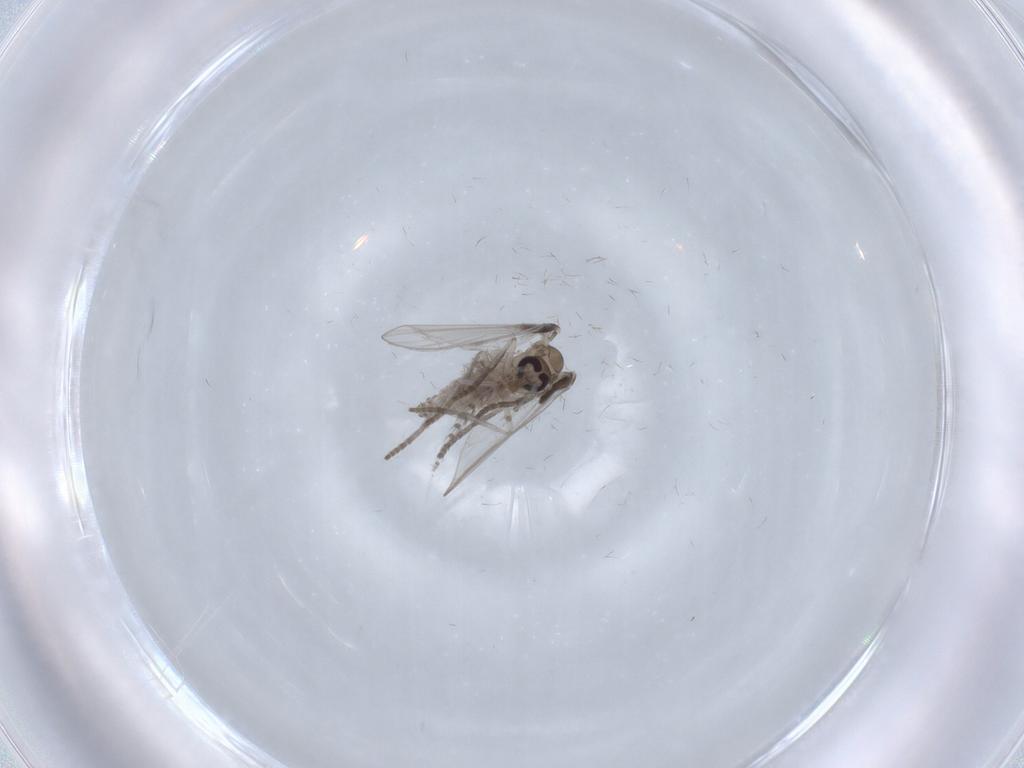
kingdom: Animalia
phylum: Arthropoda
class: Insecta
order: Diptera
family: Psychodidae
